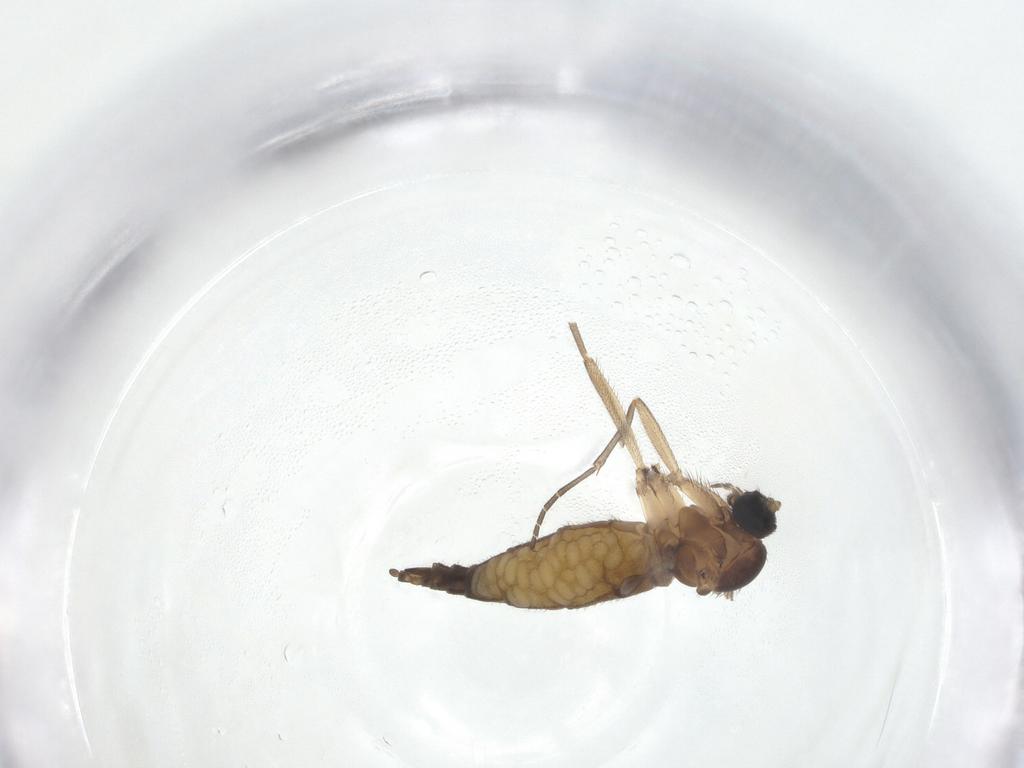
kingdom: Animalia
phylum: Arthropoda
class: Insecta
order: Diptera
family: Sciaridae
